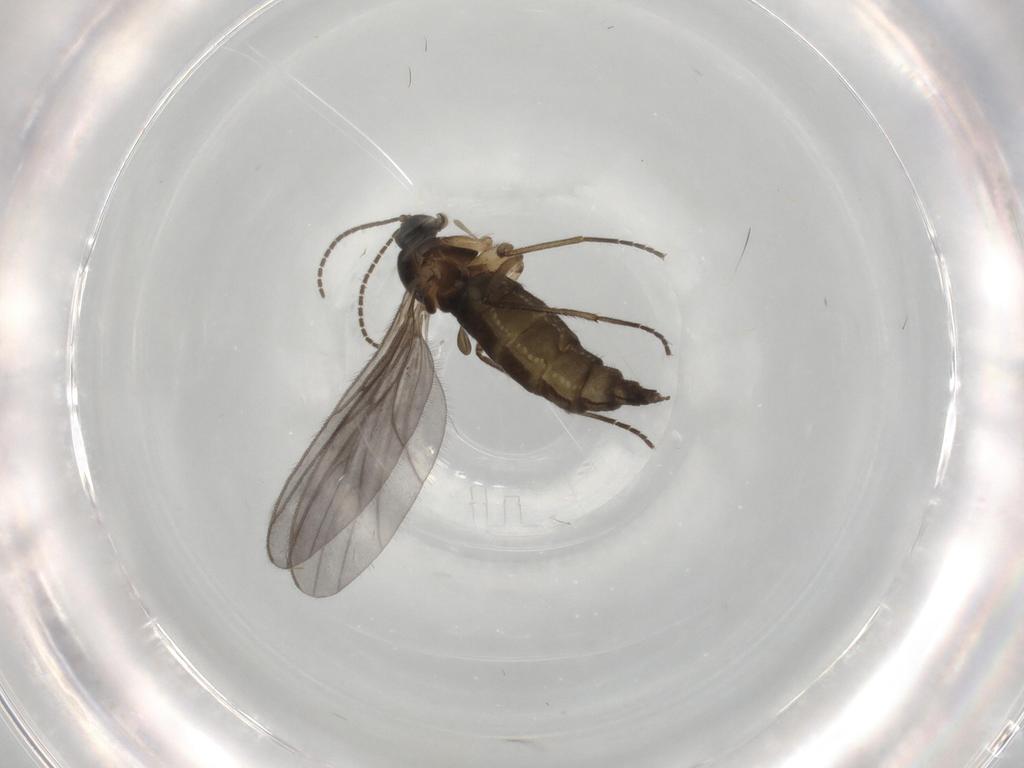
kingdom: Animalia
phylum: Arthropoda
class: Insecta
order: Diptera
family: Sciaridae
